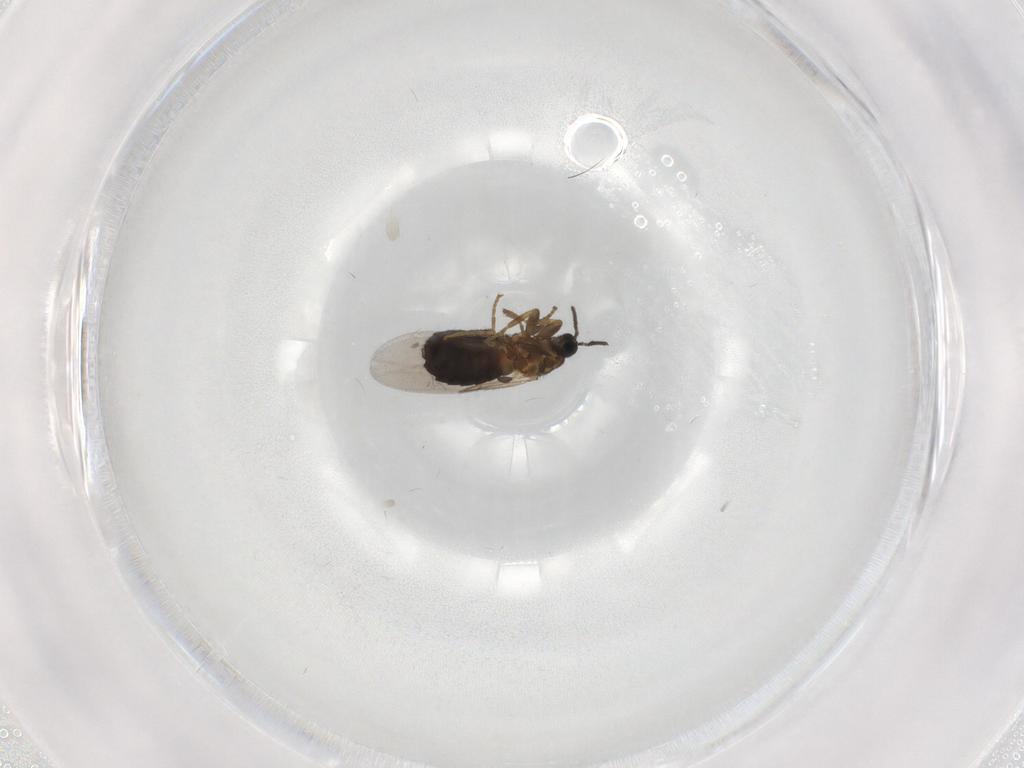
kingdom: Animalia
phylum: Arthropoda
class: Insecta
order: Diptera
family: Scatopsidae
